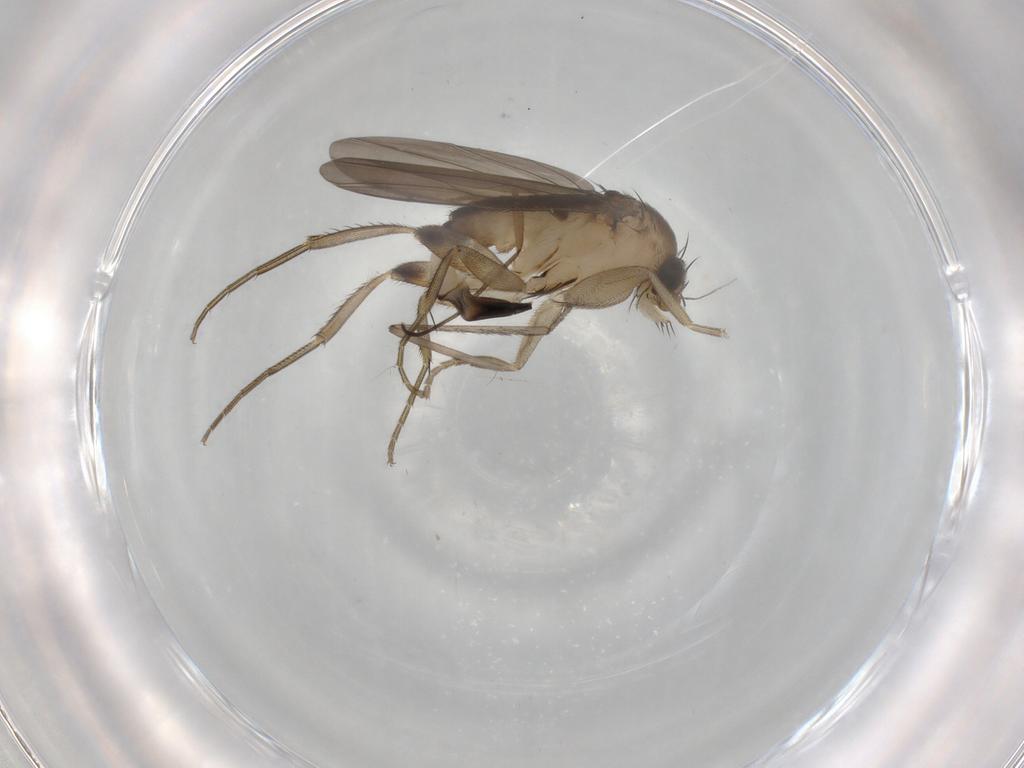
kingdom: Animalia
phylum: Arthropoda
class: Insecta
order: Diptera
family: Phoridae
